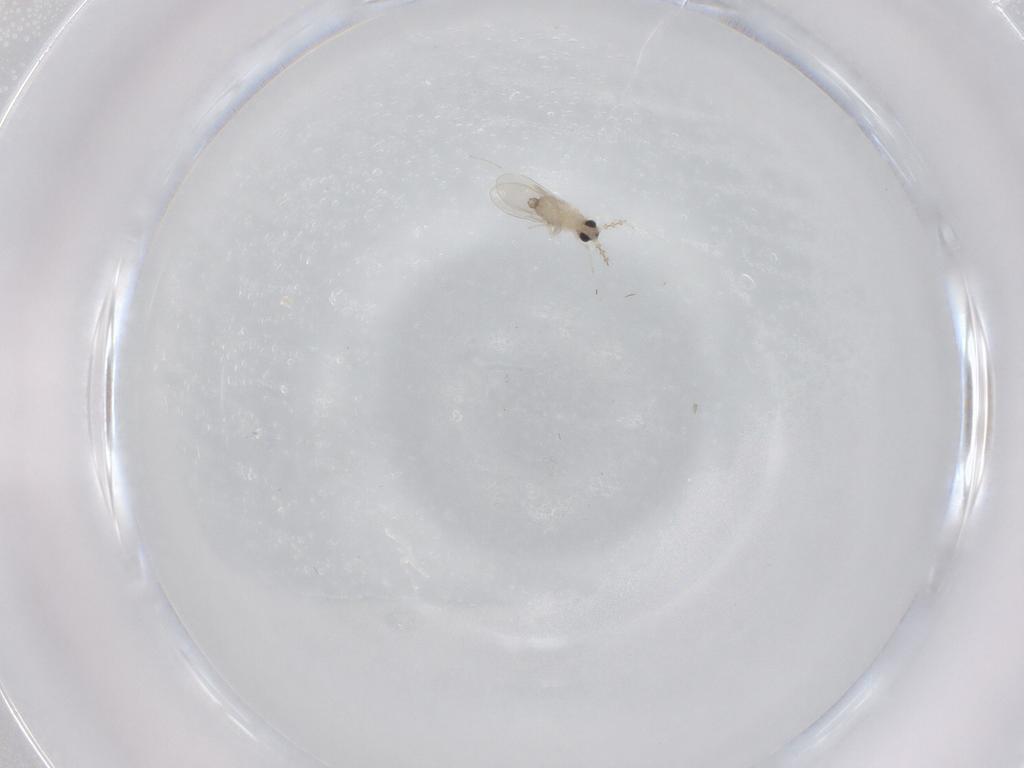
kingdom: Animalia
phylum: Arthropoda
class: Insecta
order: Diptera
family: Cecidomyiidae
